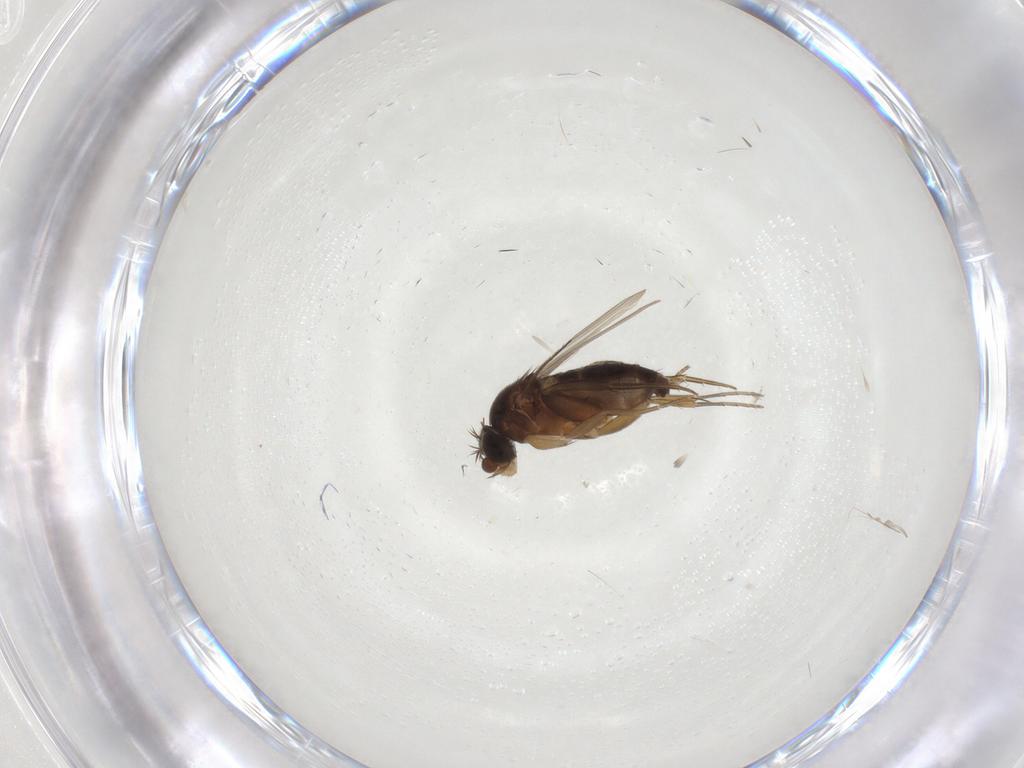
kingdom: Animalia
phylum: Arthropoda
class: Insecta
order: Diptera
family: Phoridae
